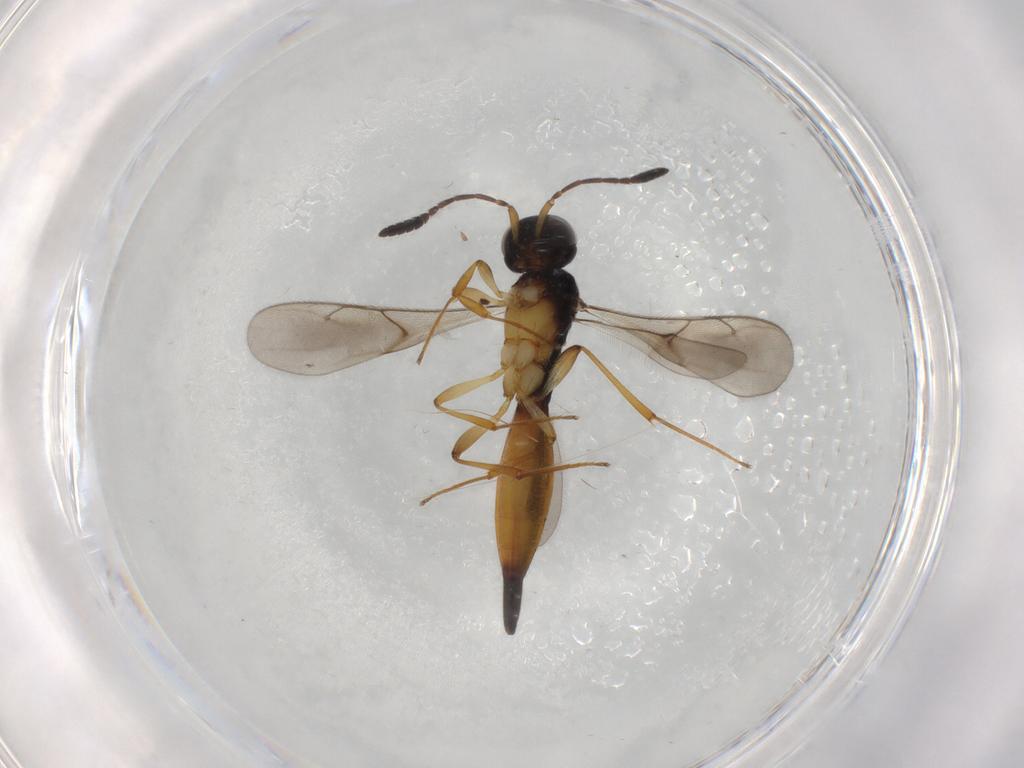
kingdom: Animalia
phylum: Arthropoda
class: Insecta
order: Hymenoptera
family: Scelionidae
